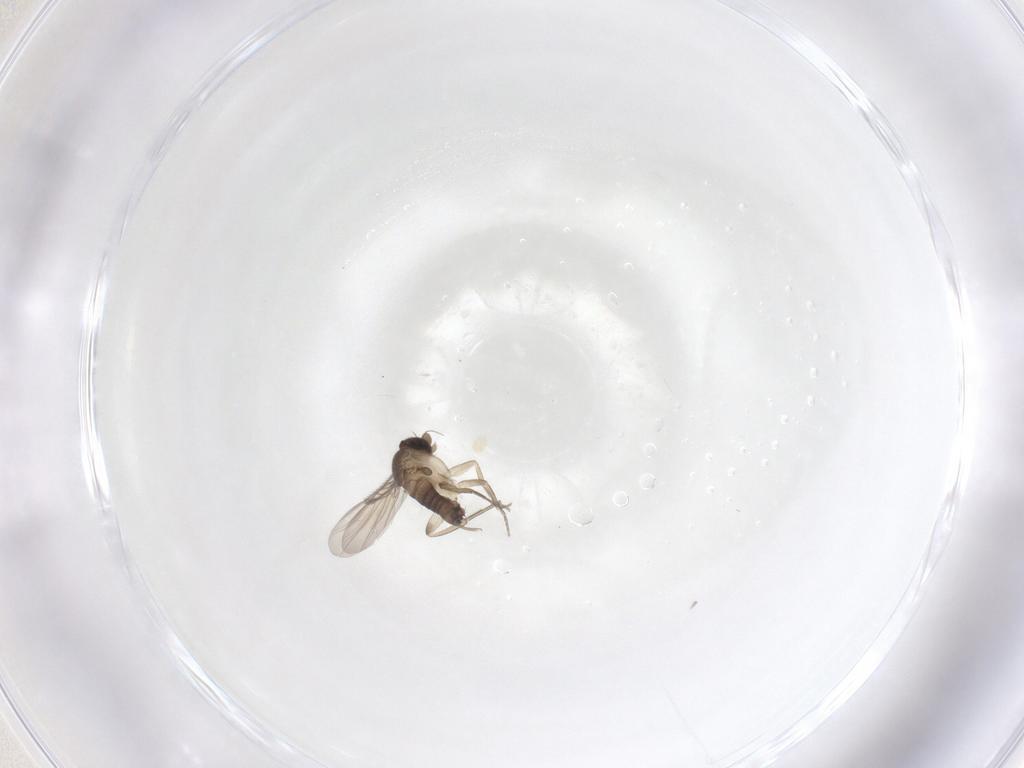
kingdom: Animalia
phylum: Arthropoda
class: Insecta
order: Diptera
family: Phoridae
